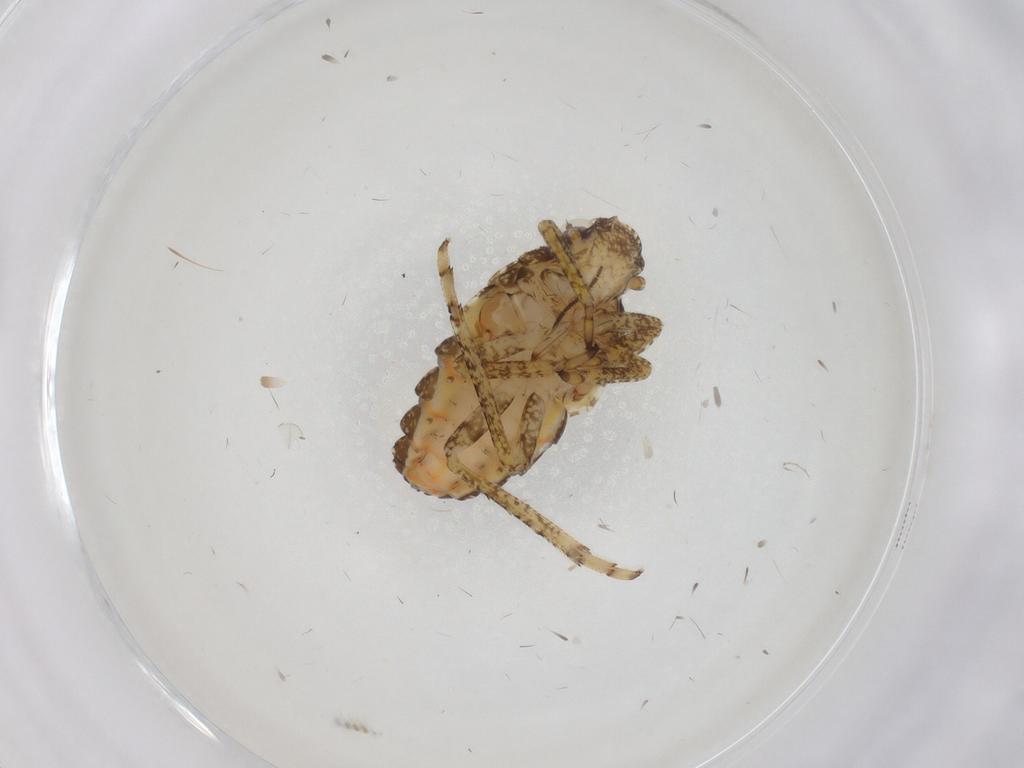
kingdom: Animalia
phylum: Arthropoda
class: Insecta
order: Hemiptera
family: Issidae
